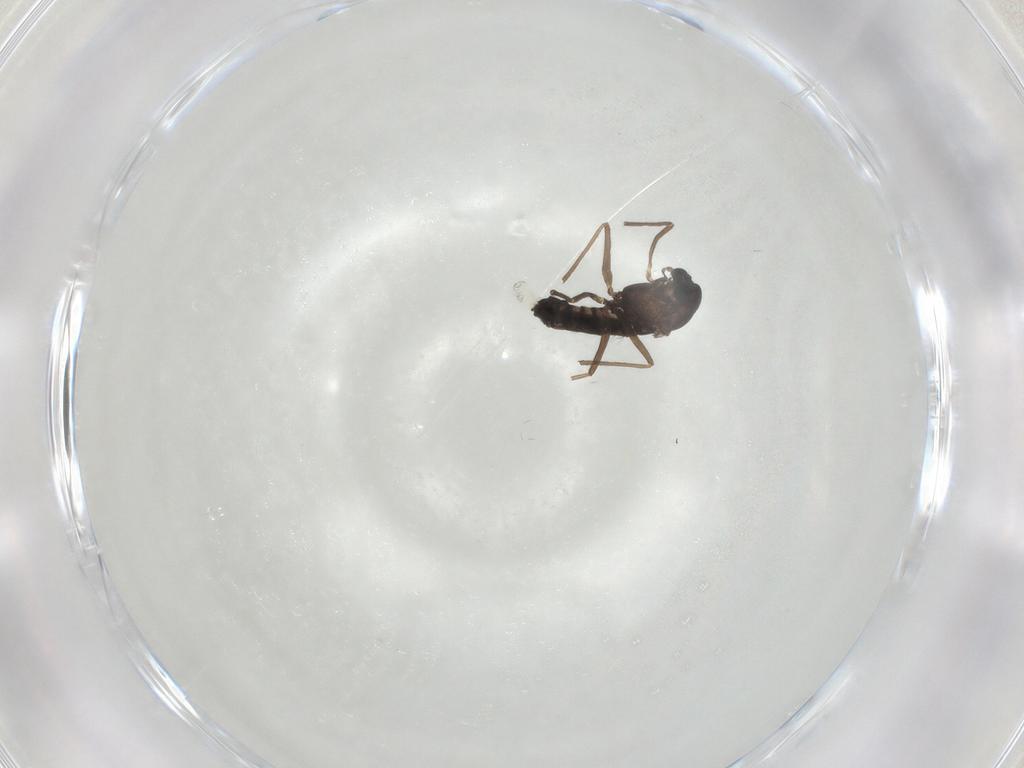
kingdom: Animalia
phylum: Arthropoda
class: Insecta
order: Diptera
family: Chironomidae
